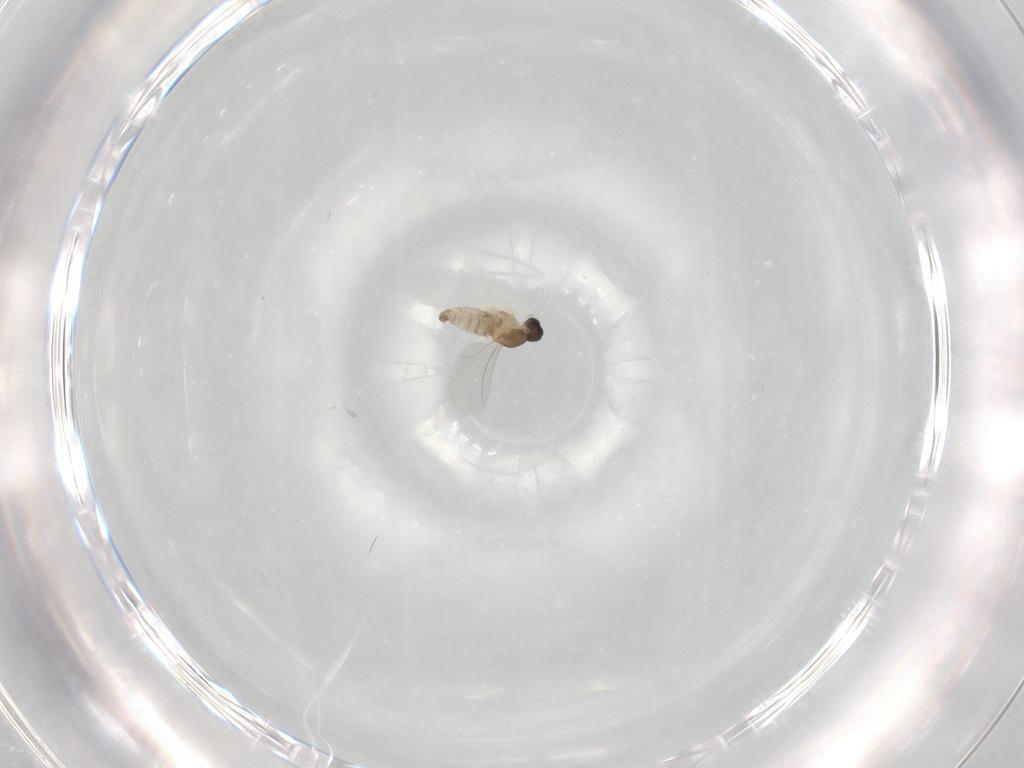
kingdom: Animalia
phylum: Arthropoda
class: Insecta
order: Diptera
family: Cecidomyiidae
